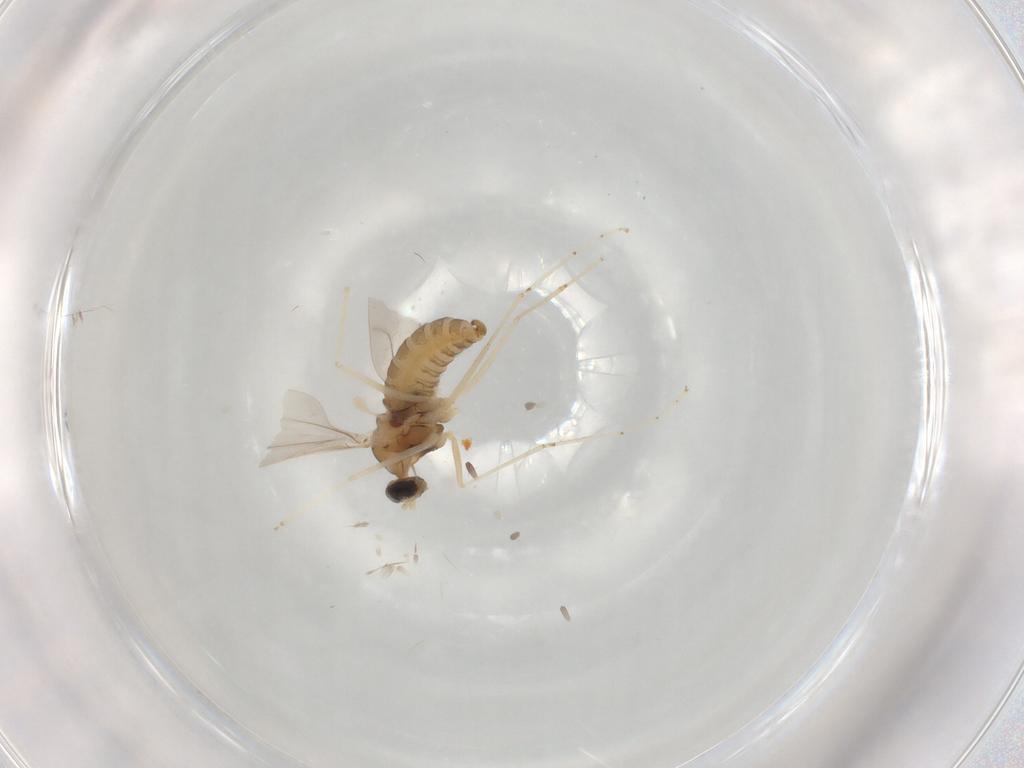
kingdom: Animalia
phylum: Arthropoda
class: Insecta
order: Diptera
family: Cecidomyiidae
